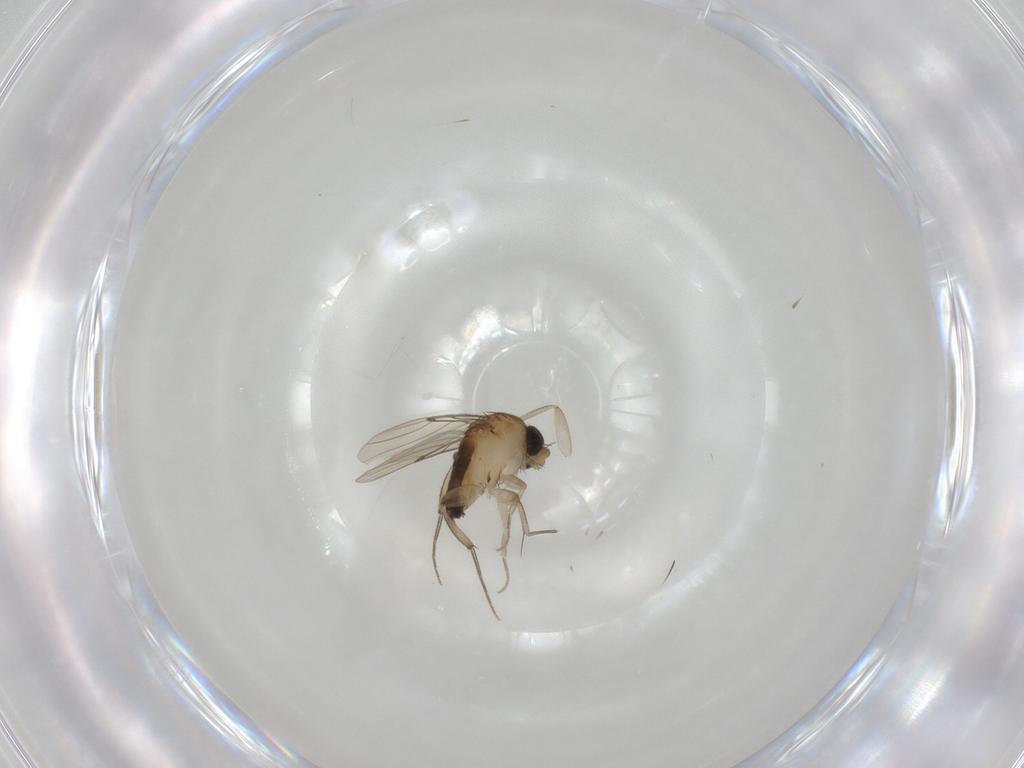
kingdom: Animalia
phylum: Arthropoda
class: Insecta
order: Diptera
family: Phoridae
